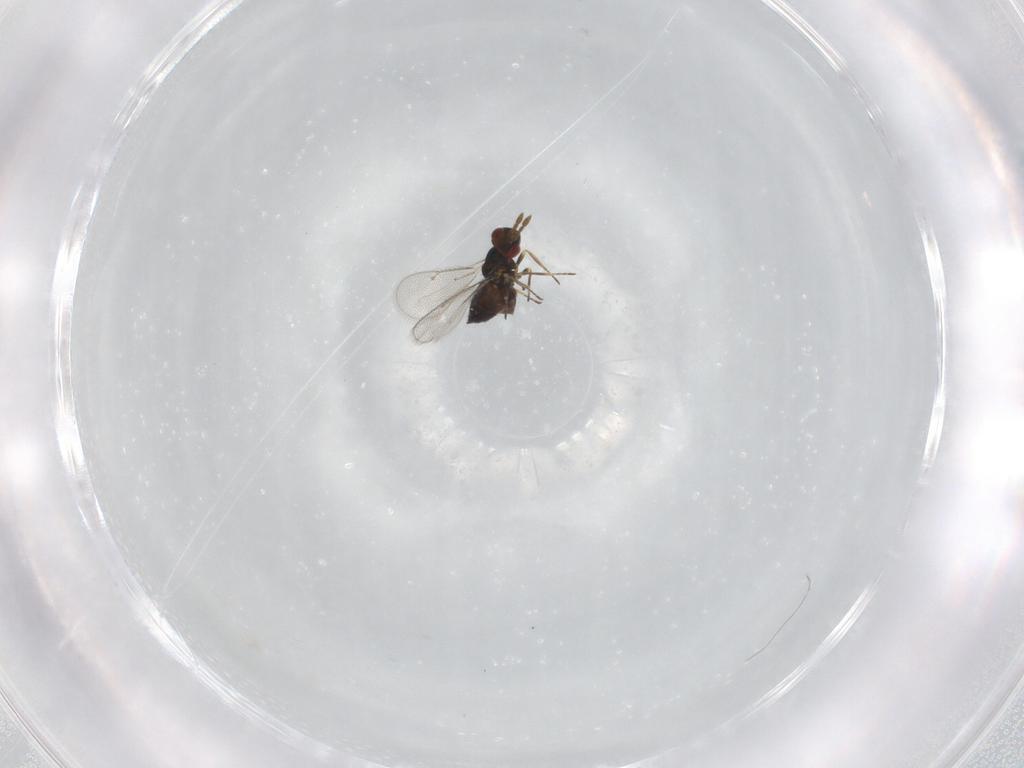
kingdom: Animalia
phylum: Arthropoda
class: Insecta
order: Hymenoptera
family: Eulophidae
